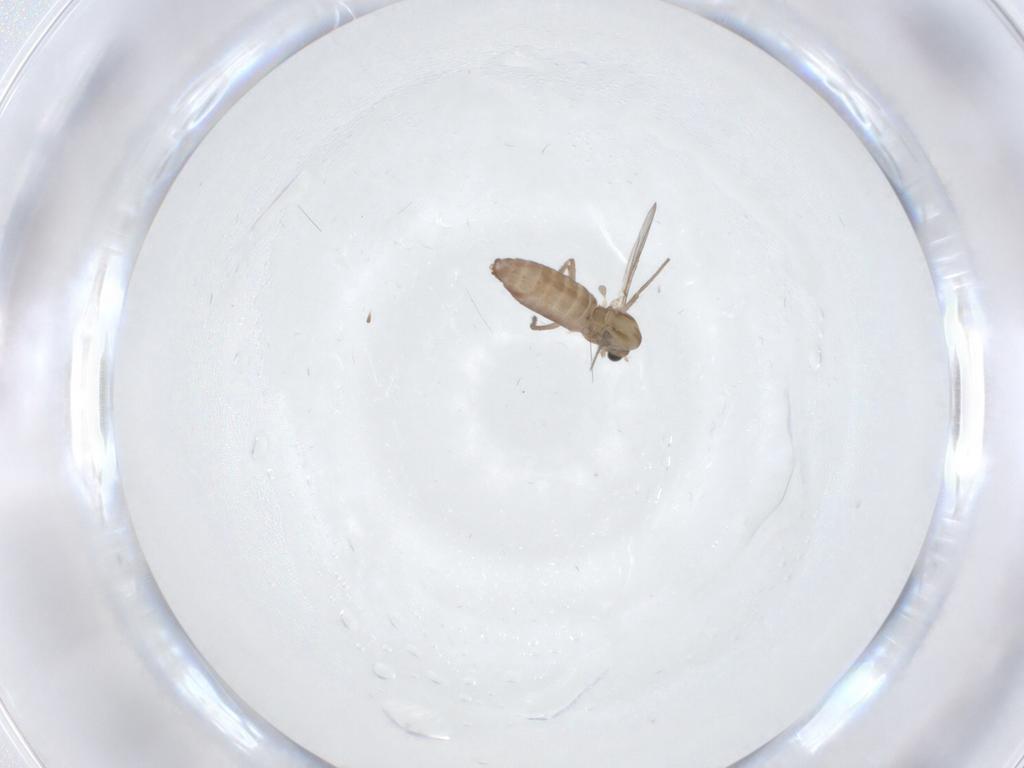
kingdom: Animalia
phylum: Arthropoda
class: Insecta
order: Diptera
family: Chironomidae
